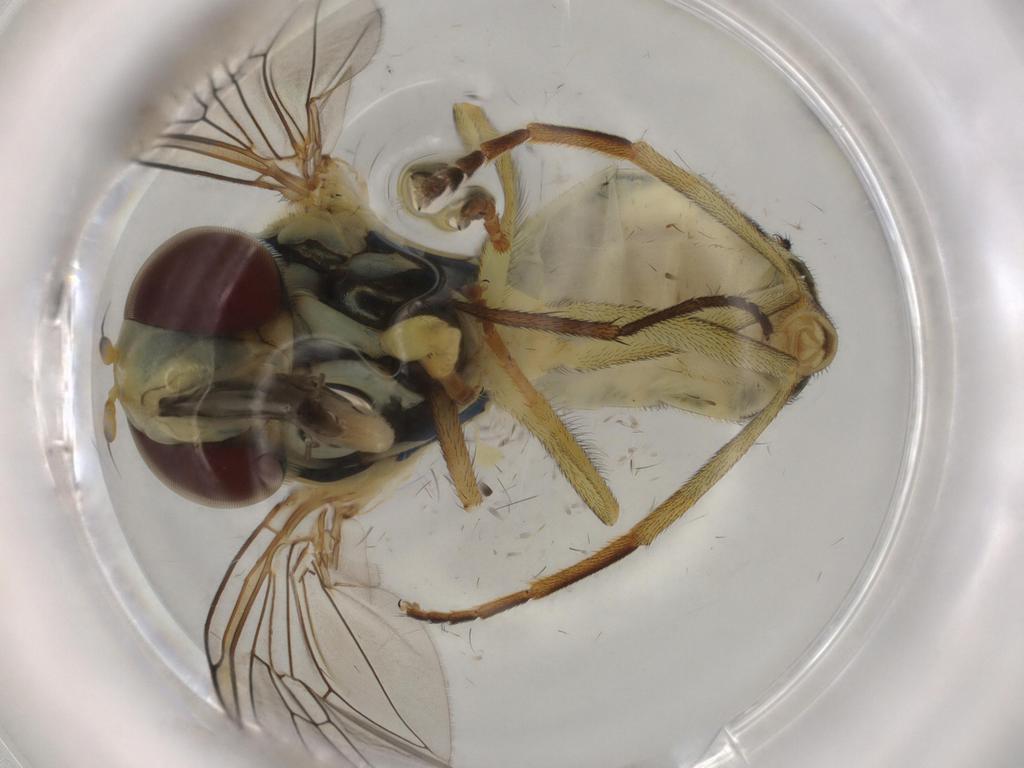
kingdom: Animalia
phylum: Arthropoda
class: Insecta
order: Diptera
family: Syrphidae
